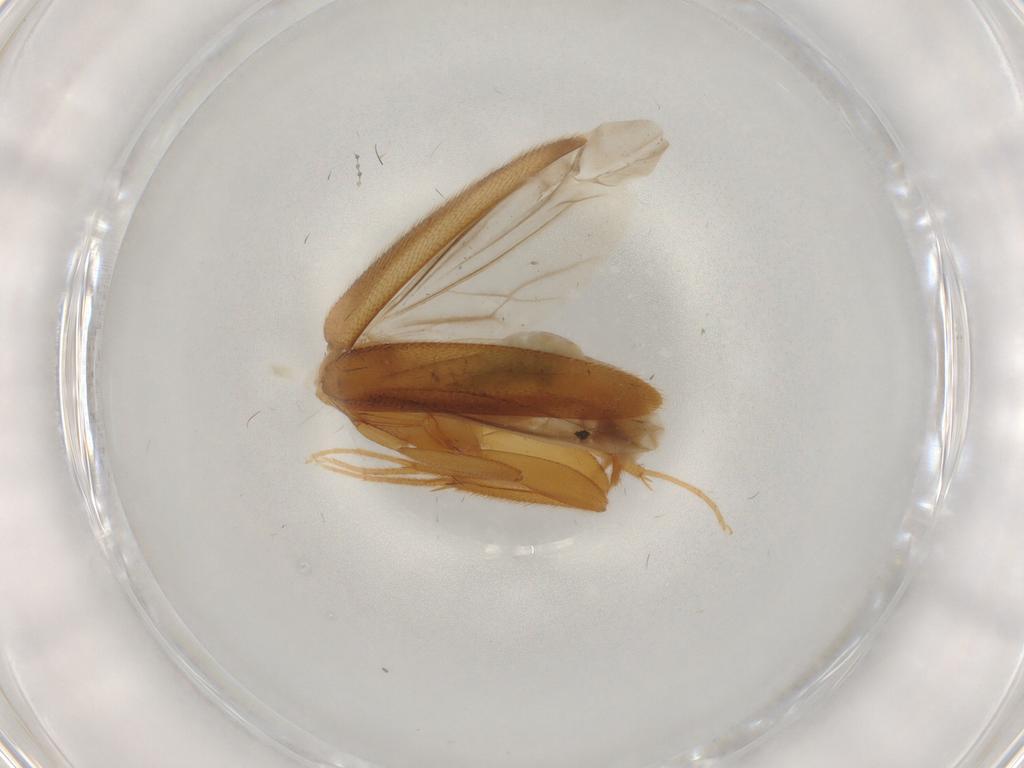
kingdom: Animalia
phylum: Arthropoda
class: Insecta
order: Coleoptera
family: Scraptiidae
